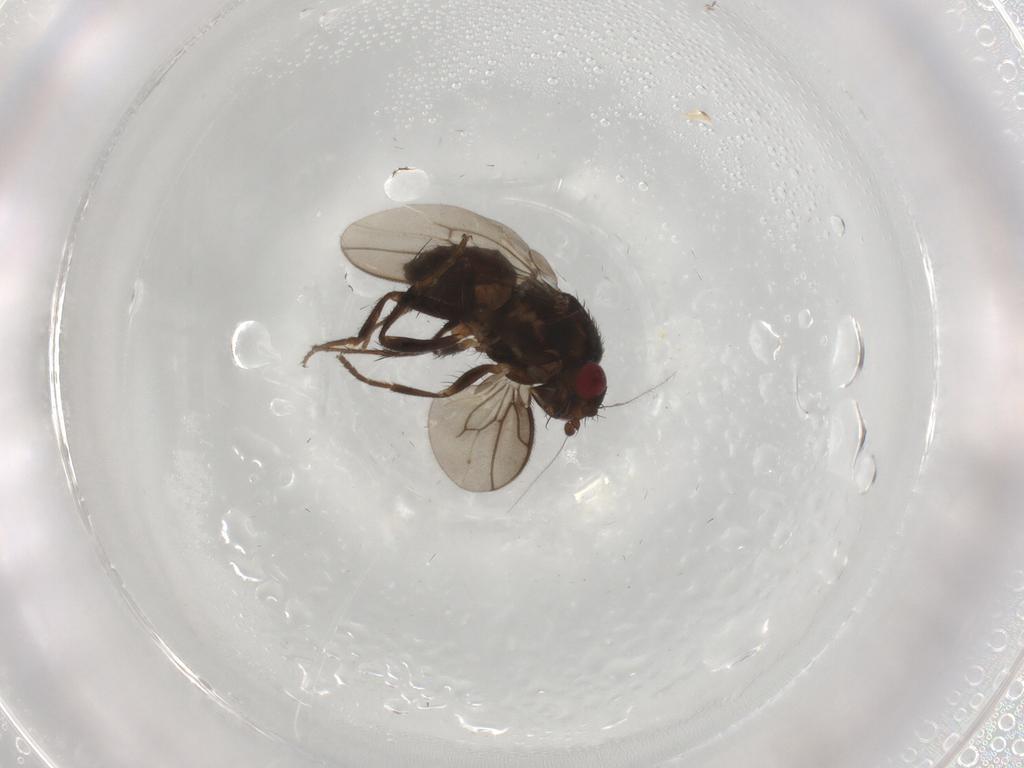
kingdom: Animalia
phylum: Arthropoda
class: Insecta
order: Diptera
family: Sphaeroceridae
